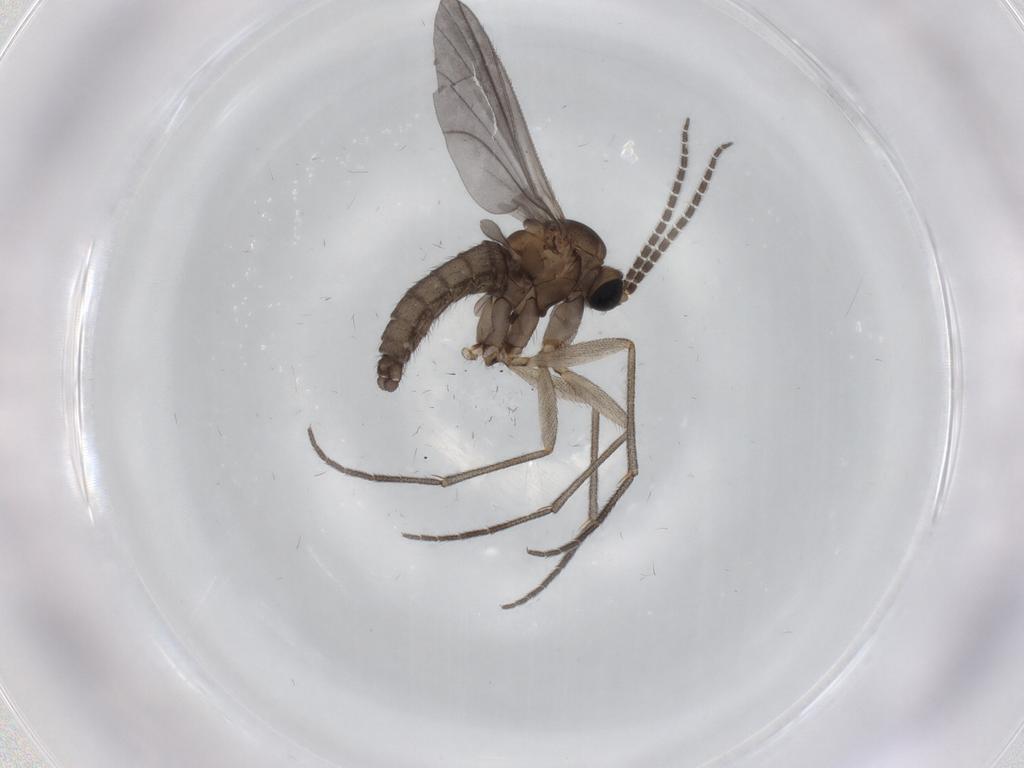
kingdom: Animalia
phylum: Arthropoda
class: Insecta
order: Diptera
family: Sciaridae
